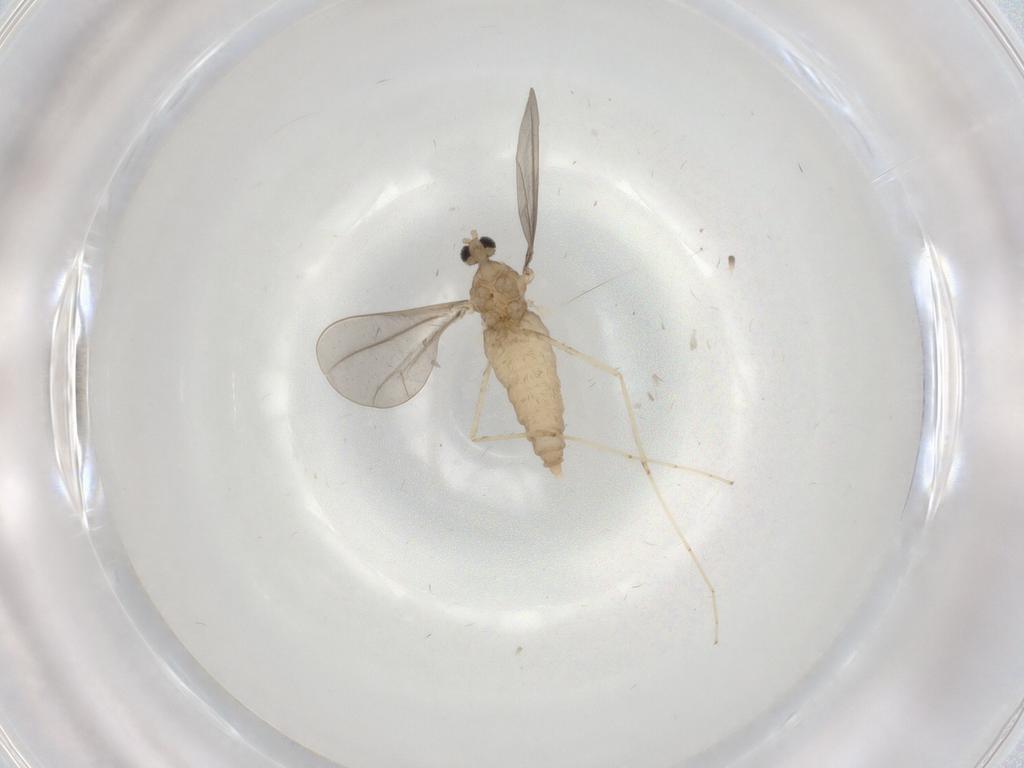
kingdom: Animalia
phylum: Arthropoda
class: Insecta
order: Diptera
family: Cecidomyiidae
